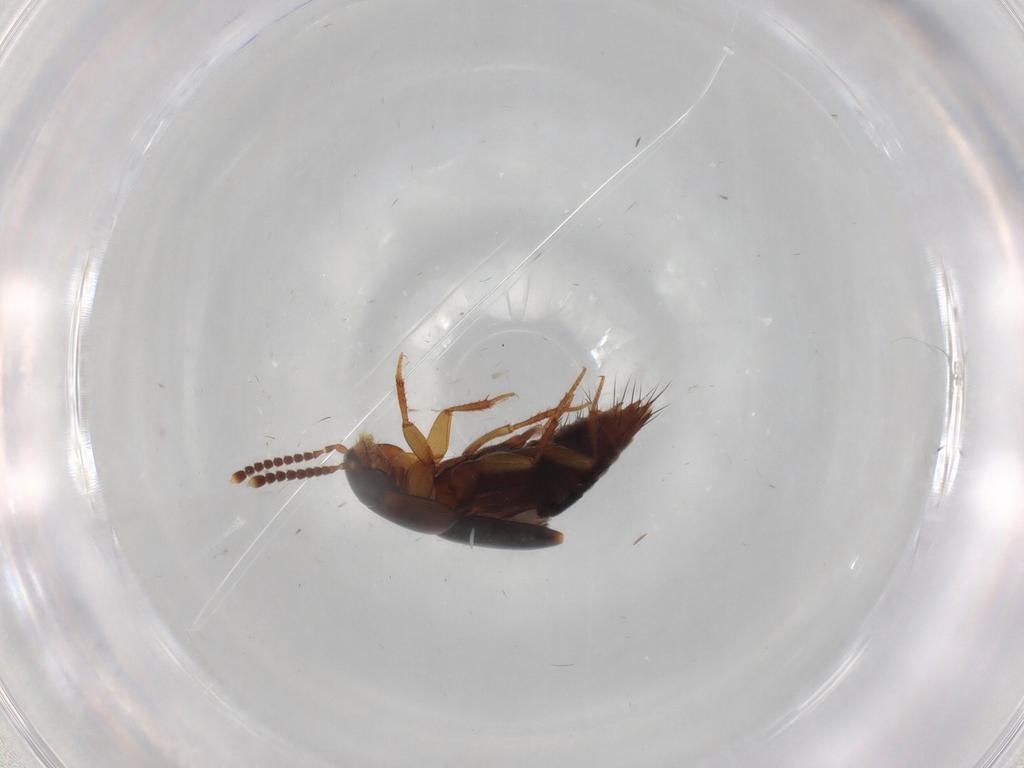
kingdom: Animalia
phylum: Arthropoda
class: Insecta
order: Coleoptera
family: Staphylinidae
